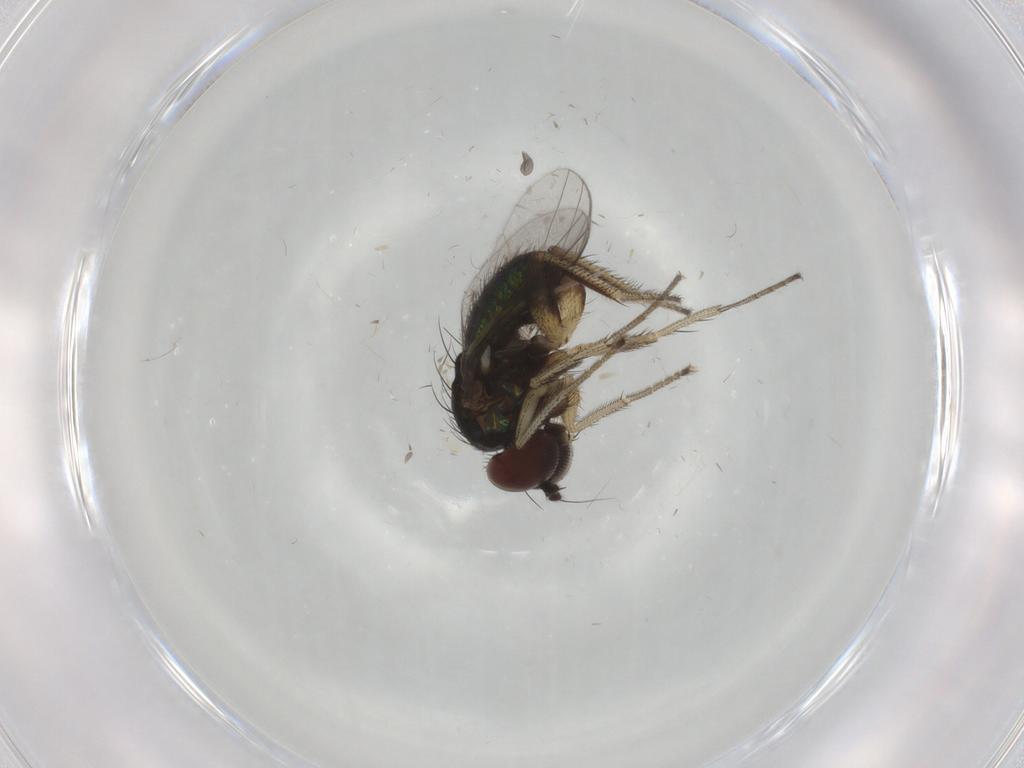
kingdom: Animalia
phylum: Arthropoda
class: Insecta
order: Diptera
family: Dolichopodidae
